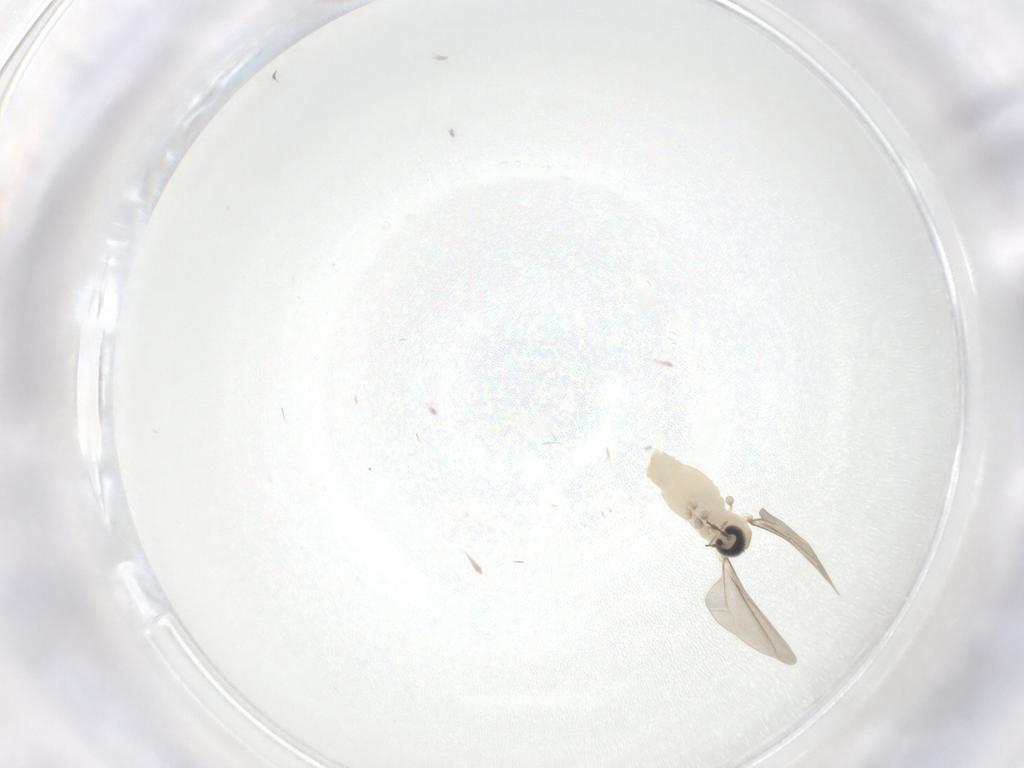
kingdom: Animalia
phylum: Arthropoda
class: Insecta
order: Diptera
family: Cecidomyiidae
